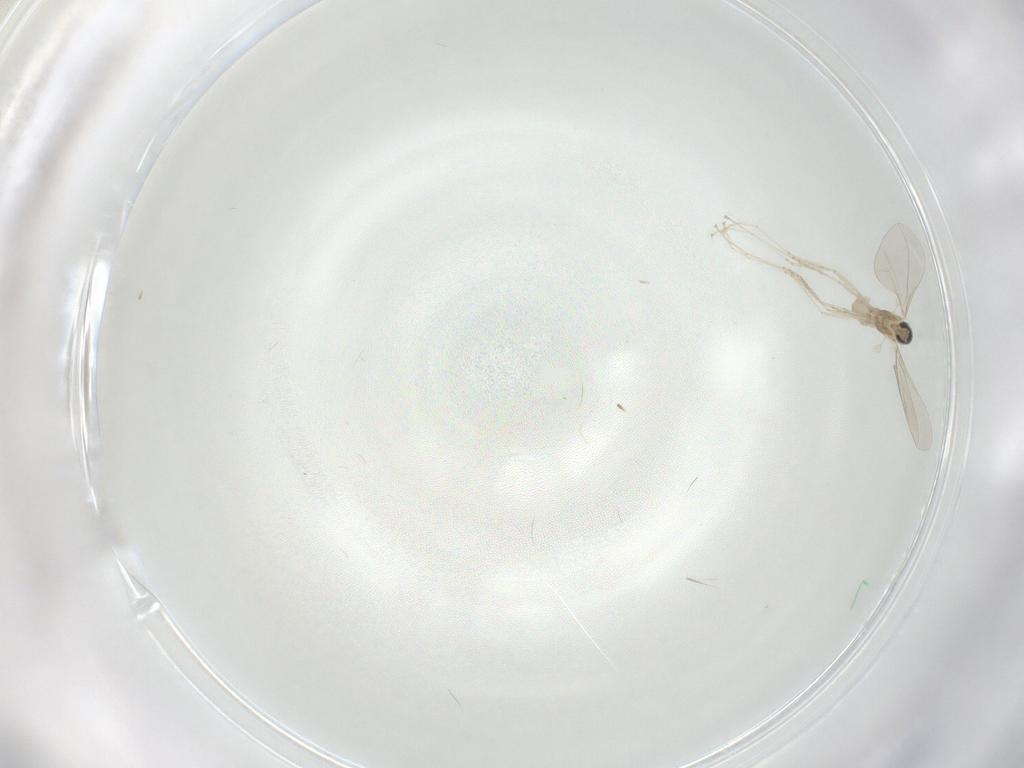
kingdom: Animalia
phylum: Arthropoda
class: Insecta
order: Diptera
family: Cecidomyiidae
